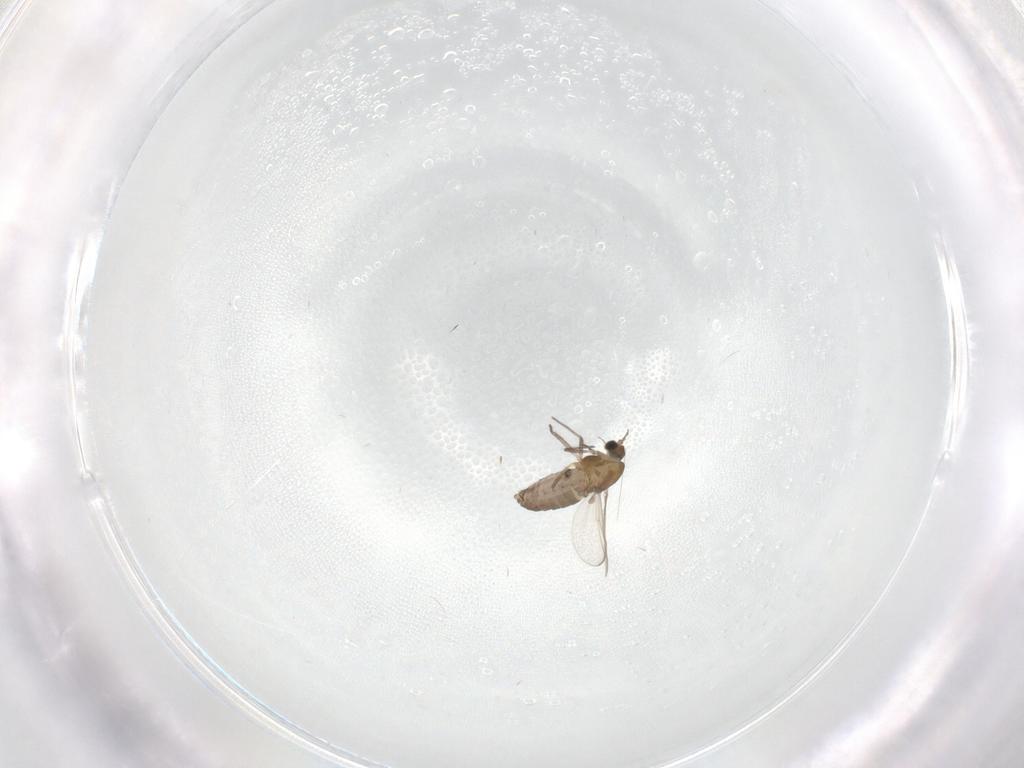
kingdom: Animalia
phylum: Arthropoda
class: Insecta
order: Diptera
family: Chironomidae
